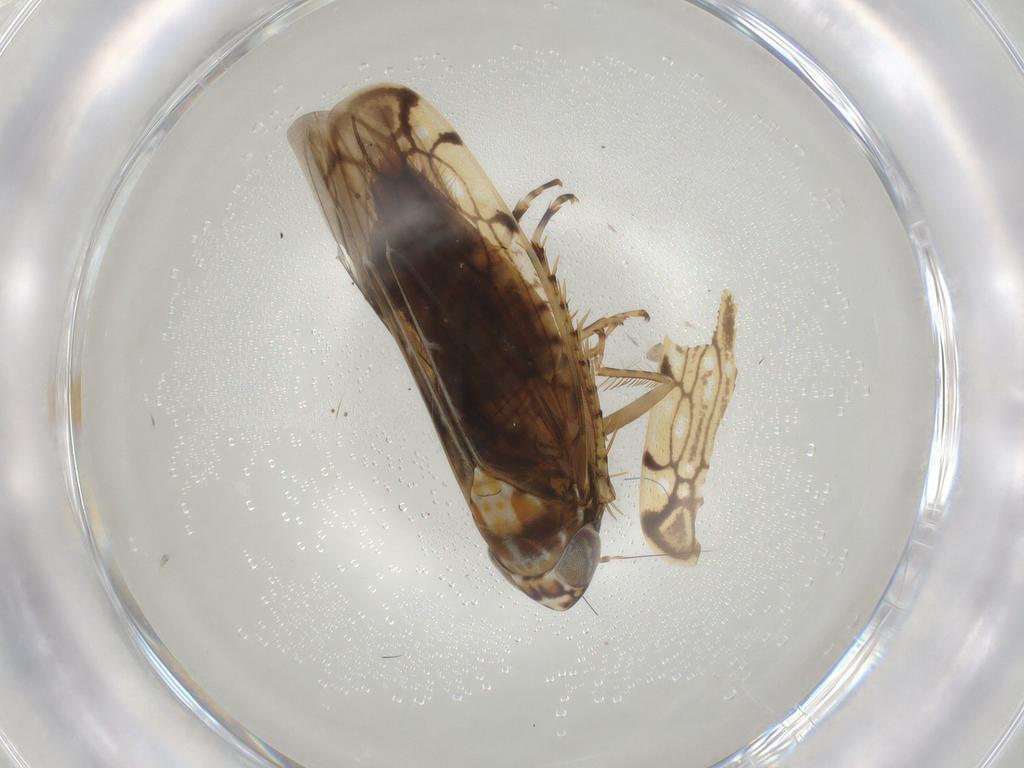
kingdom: Animalia
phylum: Arthropoda
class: Insecta
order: Hemiptera
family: Cicadellidae
